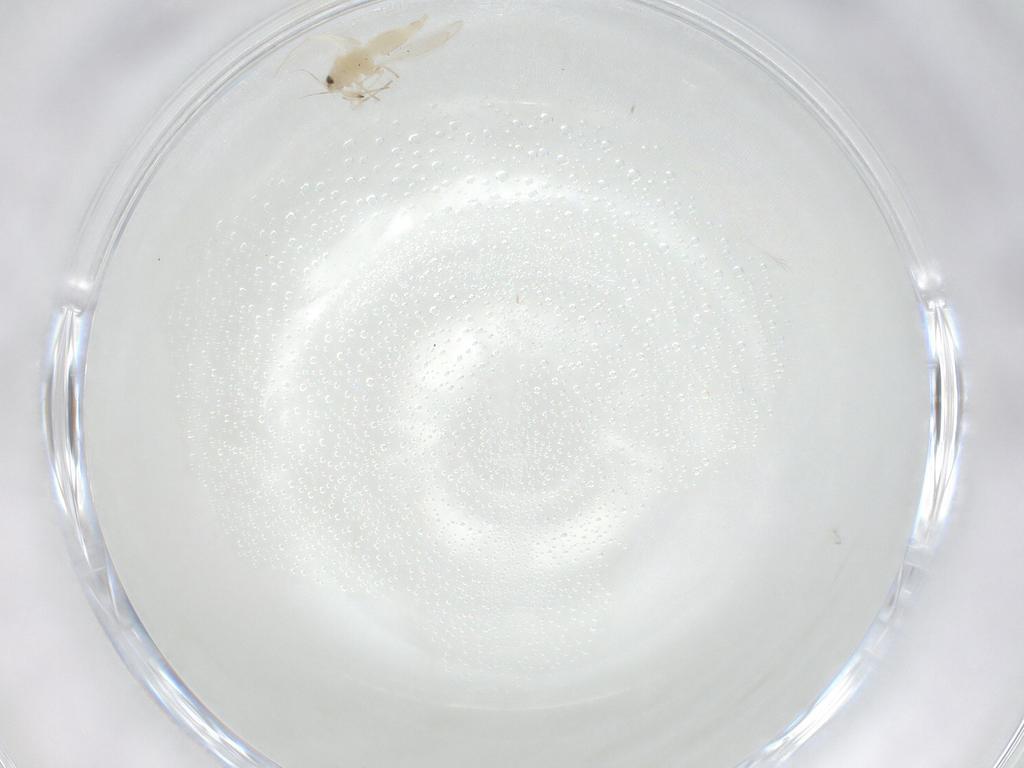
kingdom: Animalia
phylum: Arthropoda
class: Insecta
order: Hemiptera
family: Aleyrodidae
